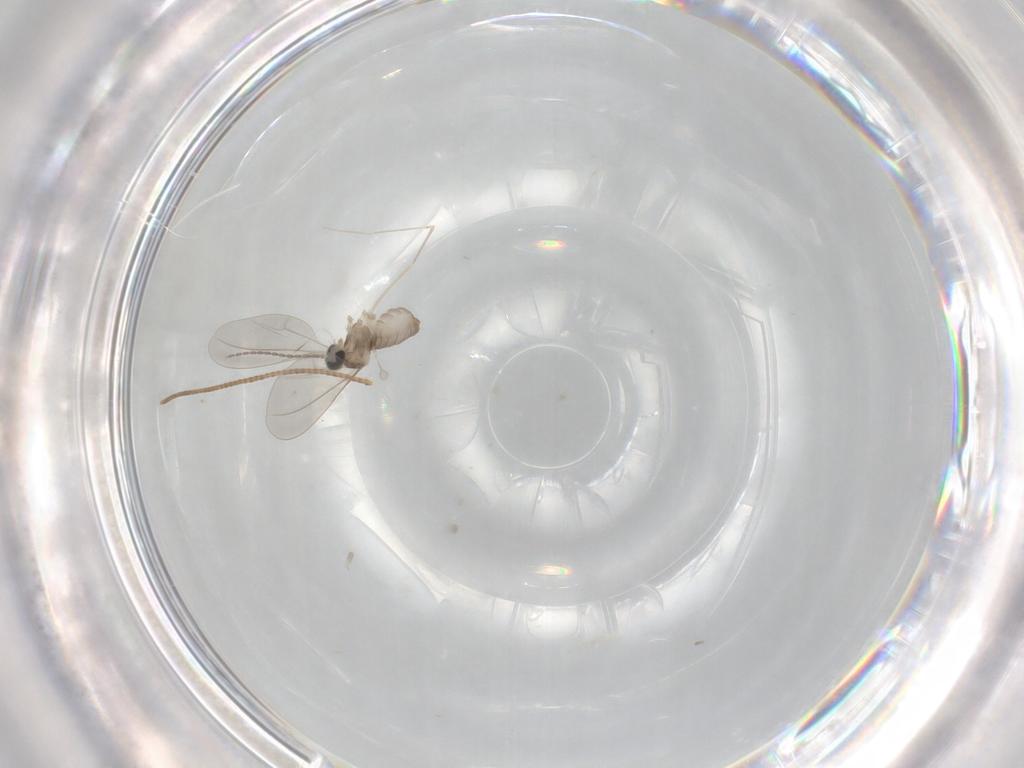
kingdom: Animalia
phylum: Arthropoda
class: Insecta
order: Diptera
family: Cecidomyiidae
